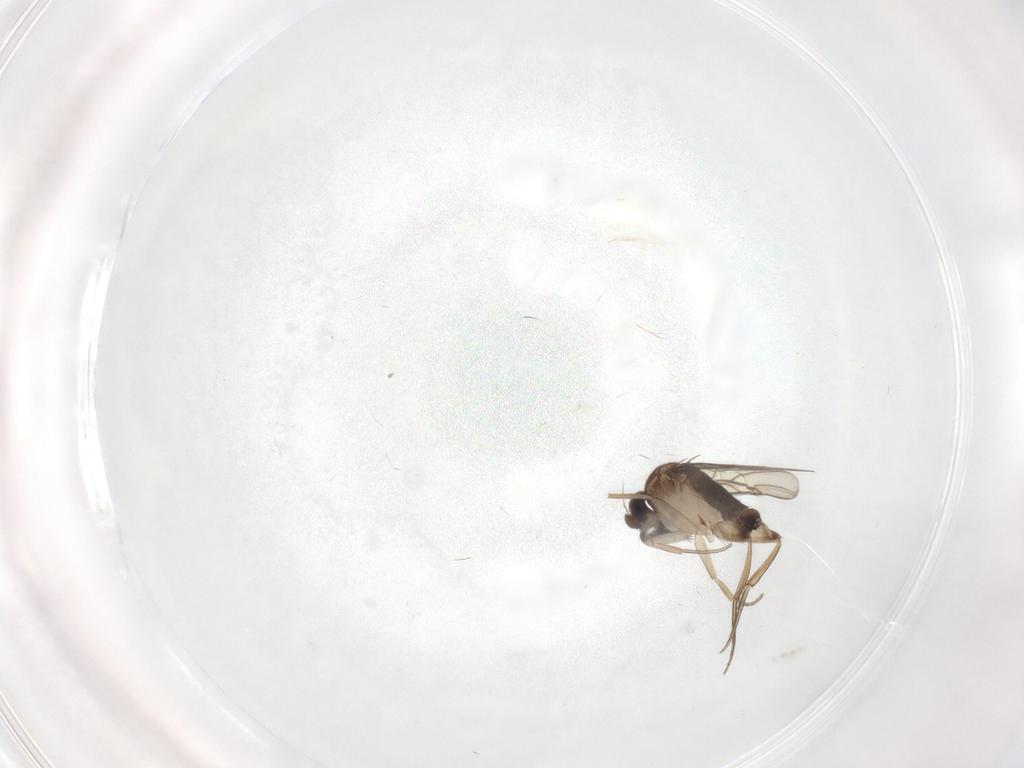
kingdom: Animalia
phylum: Arthropoda
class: Insecta
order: Diptera
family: Phoridae
